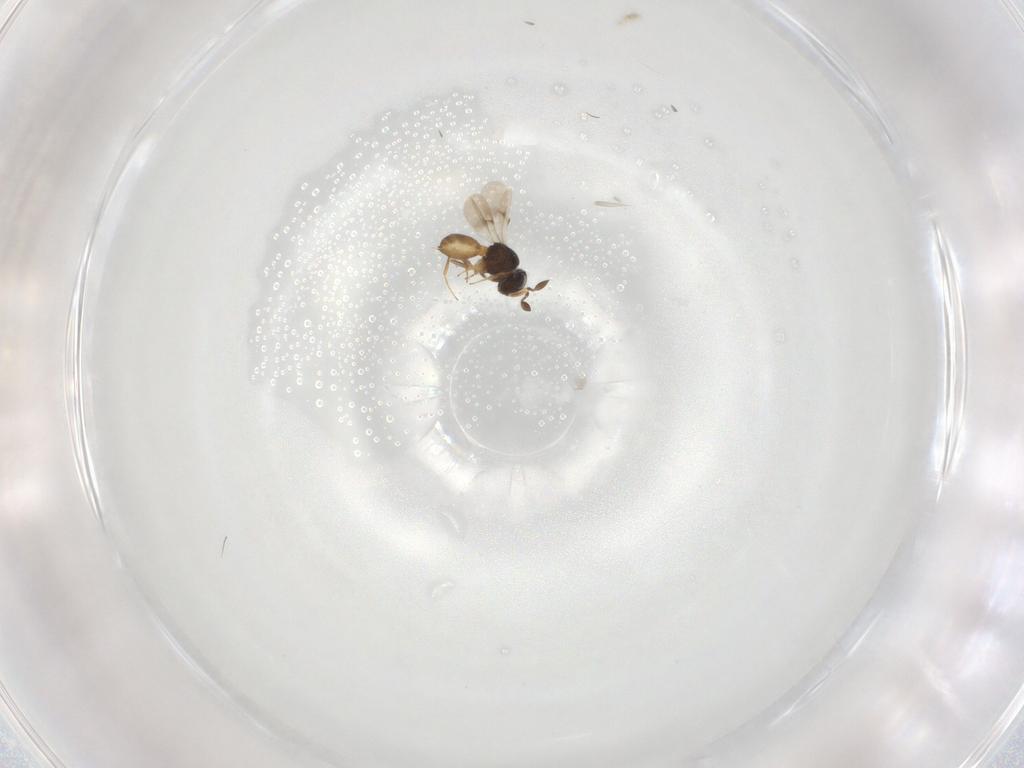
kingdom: Animalia
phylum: Arthropoda
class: Insecta
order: Hymenoptera
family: Scelionidae
